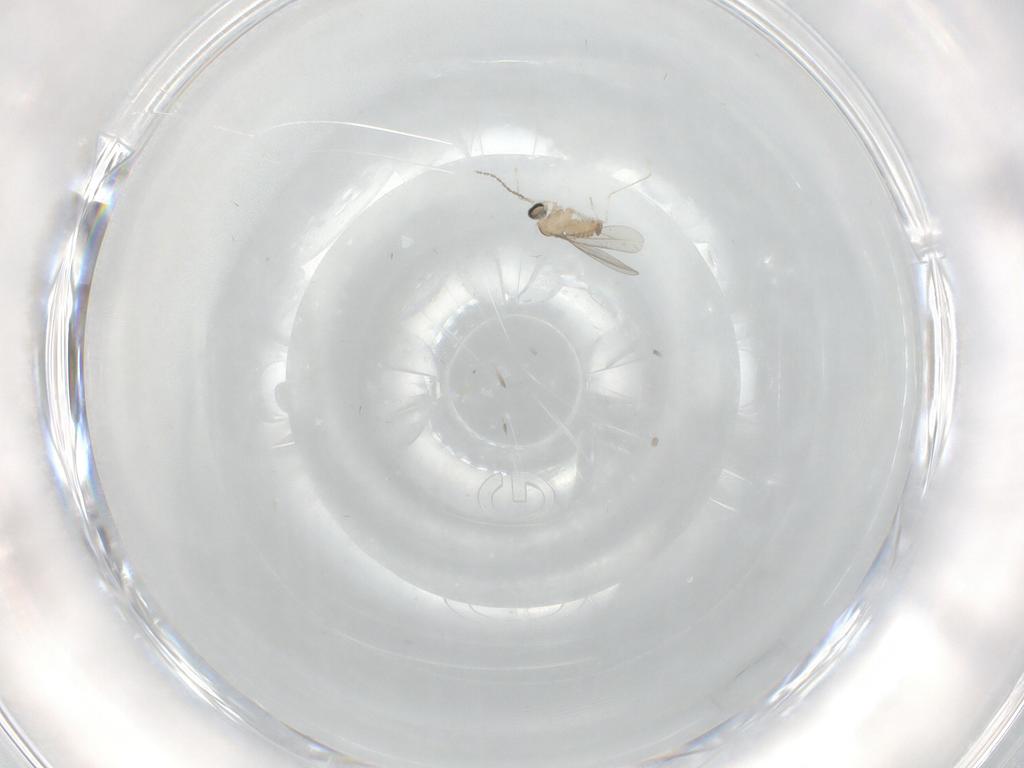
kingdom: Animalia
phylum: Arthropoda
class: Insecta
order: Diptera
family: Cecidomyiidae
